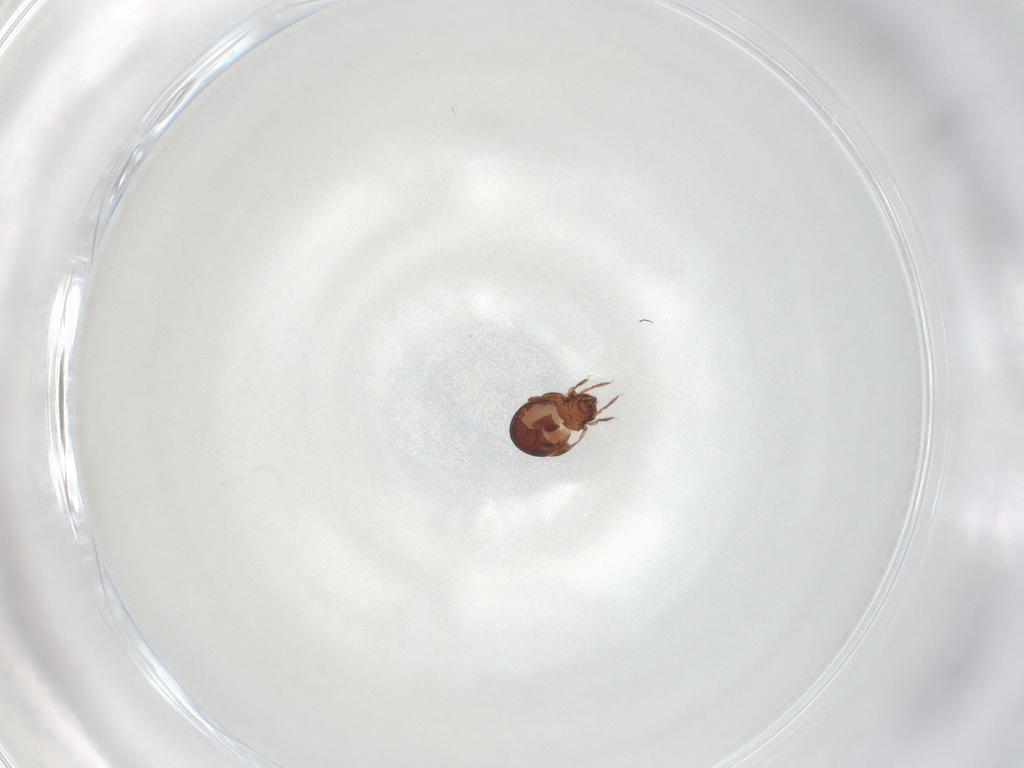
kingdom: Animalia
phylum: Arthropoda
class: Arachnida
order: Sarcoptiformes
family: Humerobatidae
